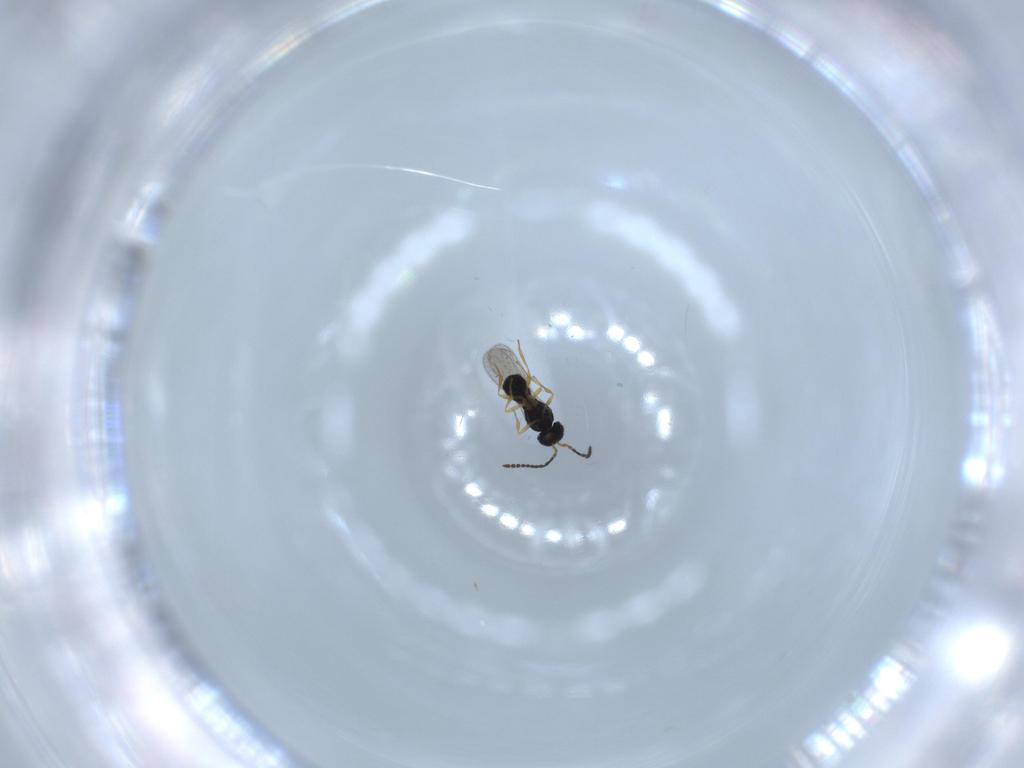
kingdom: Animalia
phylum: Arthropoda
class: Insecta
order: Hymenoptera
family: Scelionidae
